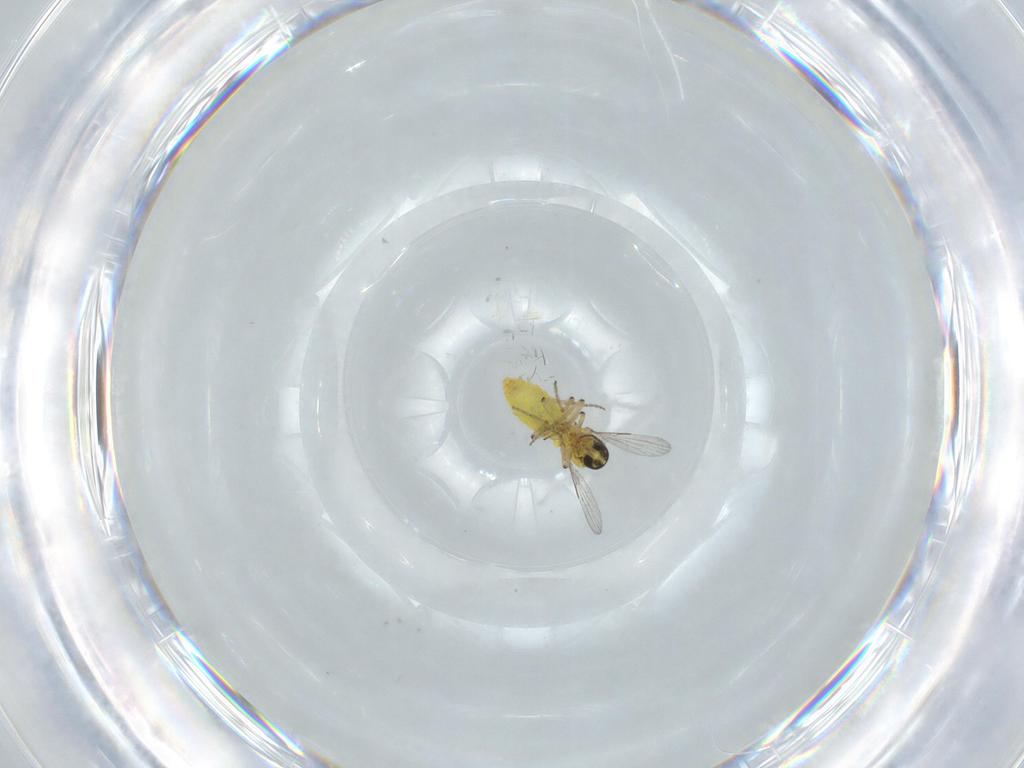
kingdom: Animalia
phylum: Arthropoda
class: Insecta
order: Diptera
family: Ceratopogonidae
